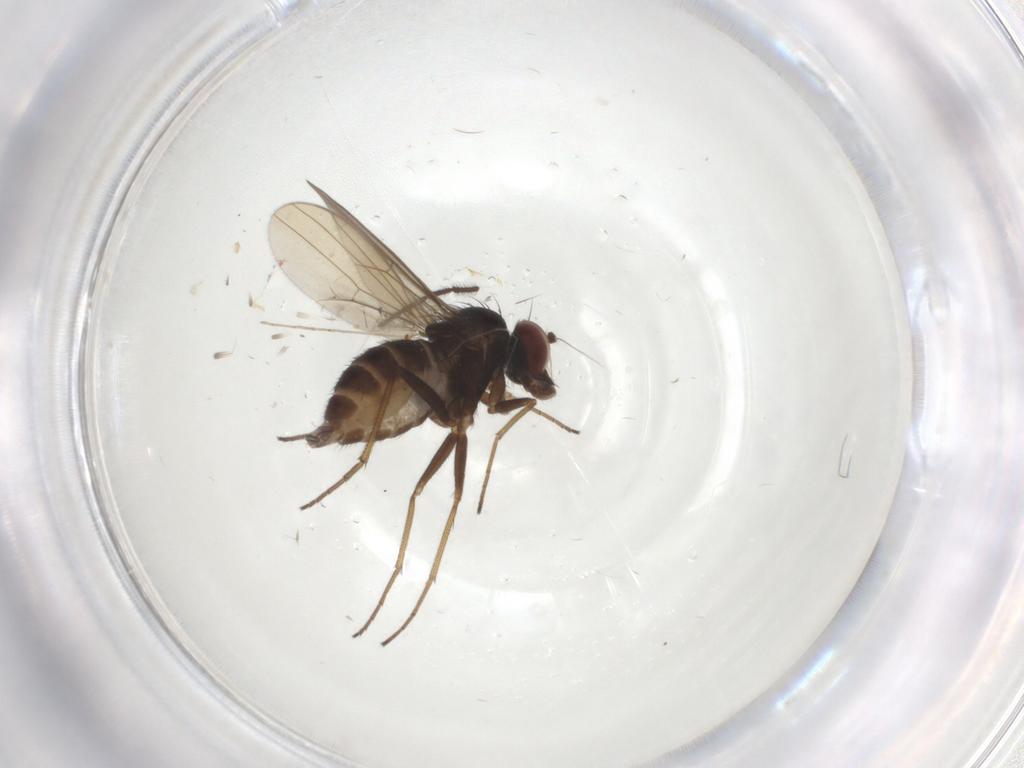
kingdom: Animalia
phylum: Arthropoda
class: Insecta
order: Diptera
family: Dolichopodidae
